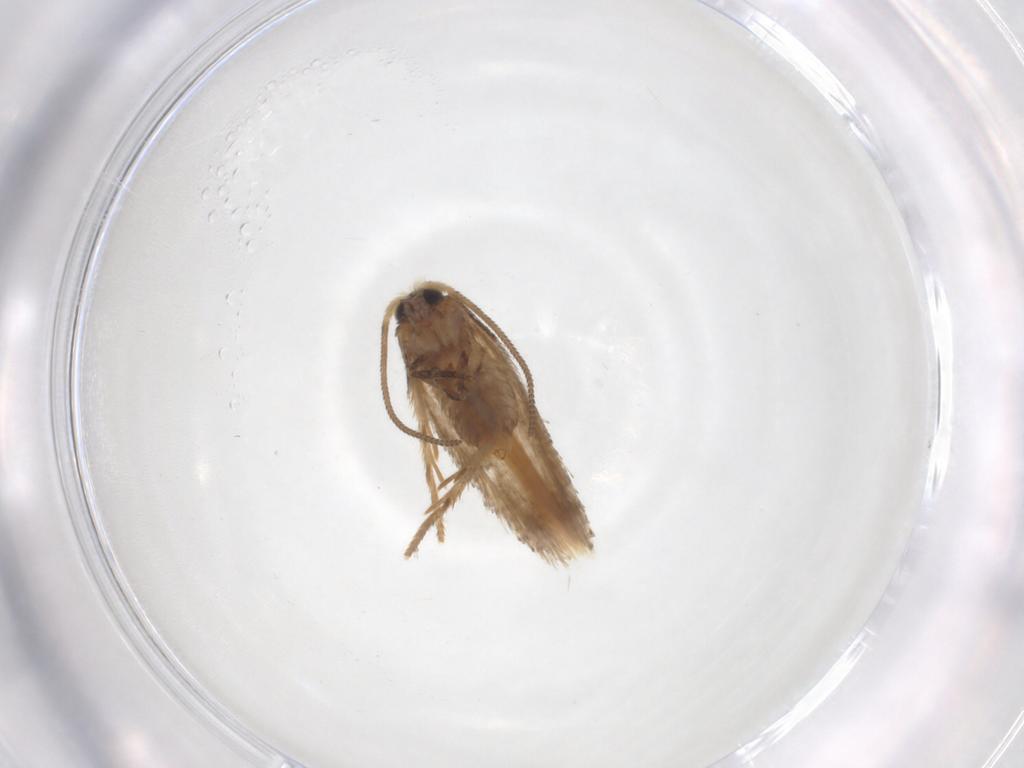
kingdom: Animalia
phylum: Arthropoda
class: Insecta
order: Lepidoptera
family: Nepticulidae
